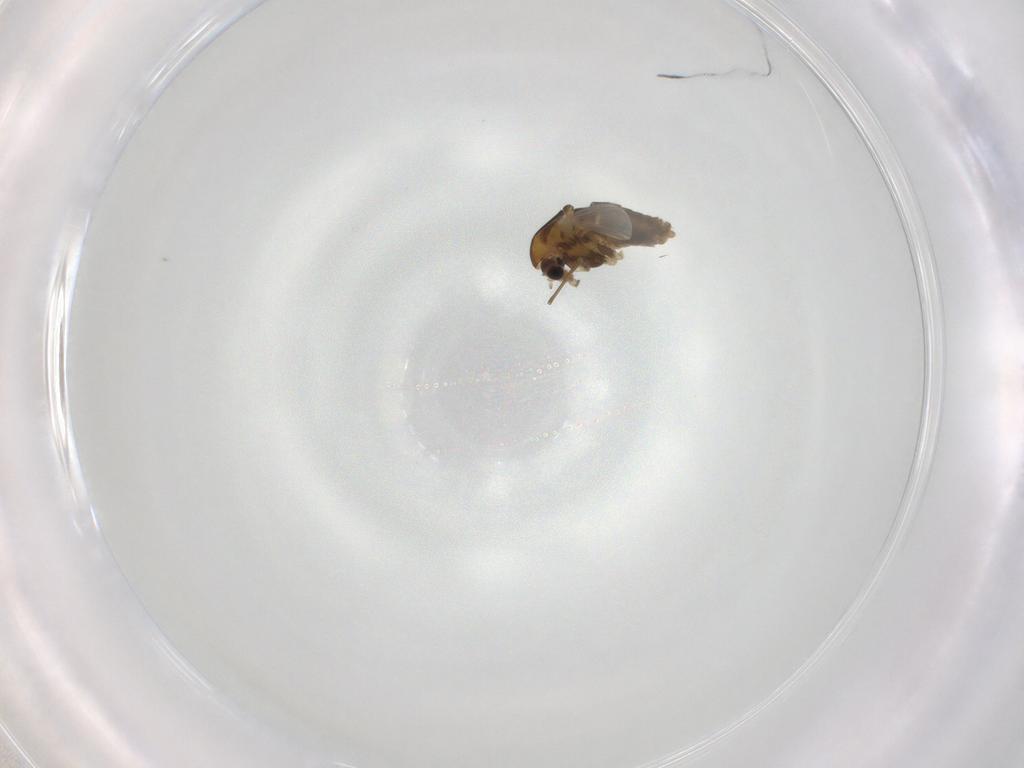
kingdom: Animalia
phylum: Arthropoda
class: Insecta
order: Diptera
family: Chironomidae
